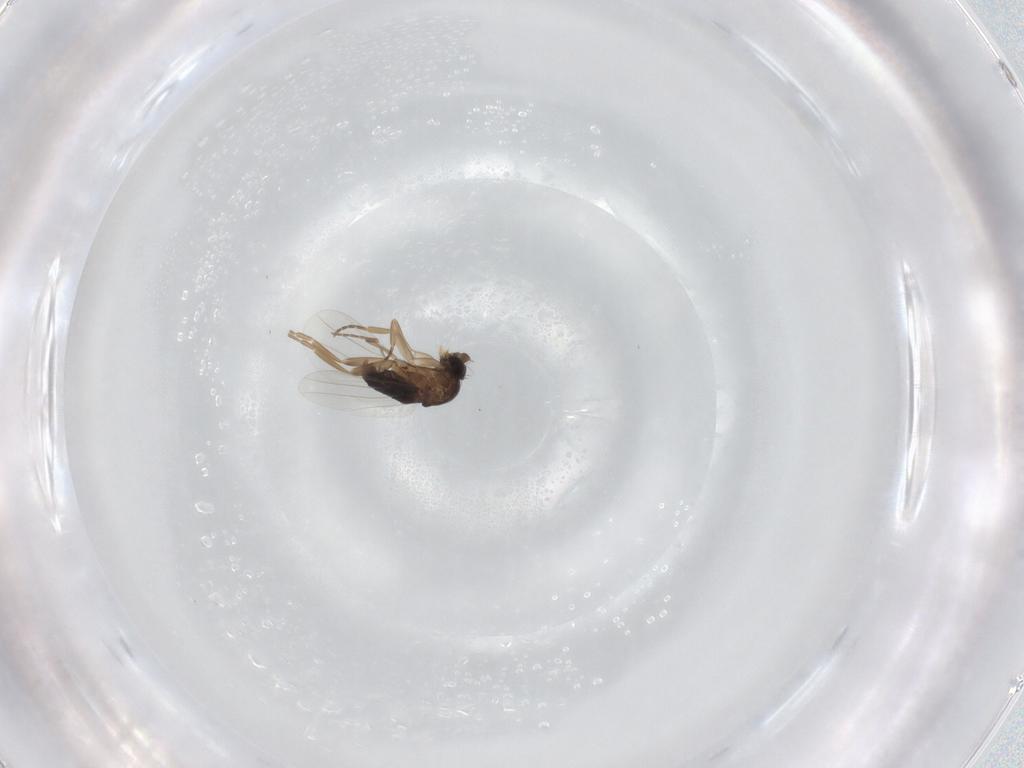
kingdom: Animalia
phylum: Arthropoda
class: Insecta
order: Diptera
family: Phoridae
